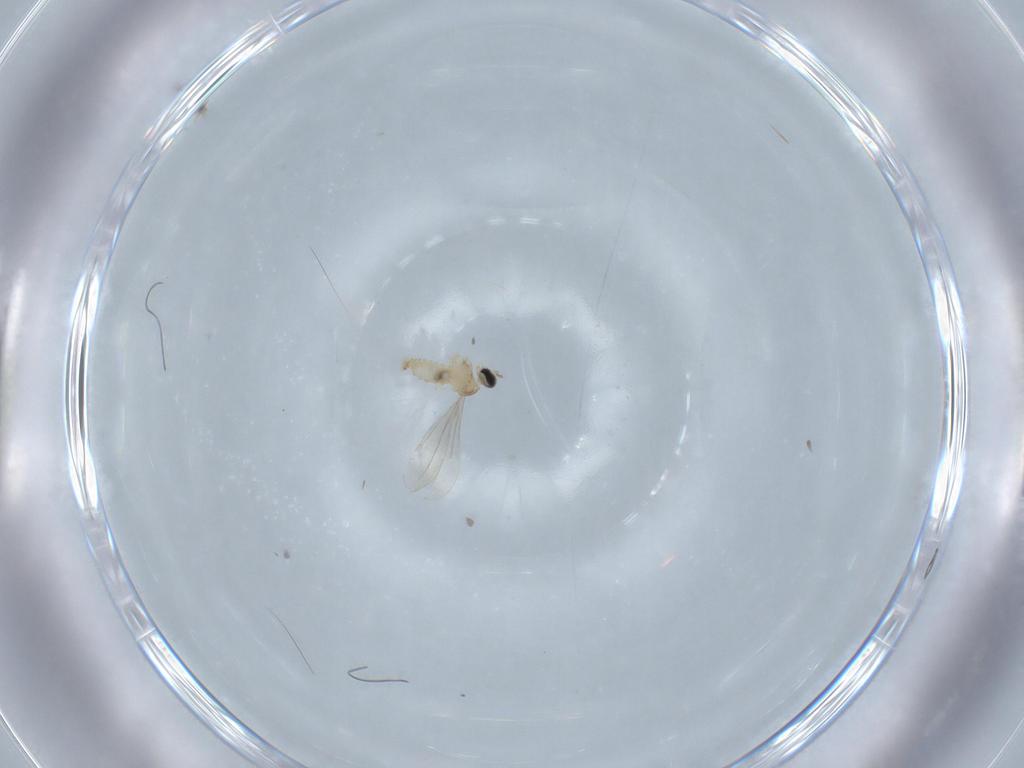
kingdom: Animalia
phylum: Arthropoda
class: Insecta
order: Diptera
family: Cecidomyiidae
